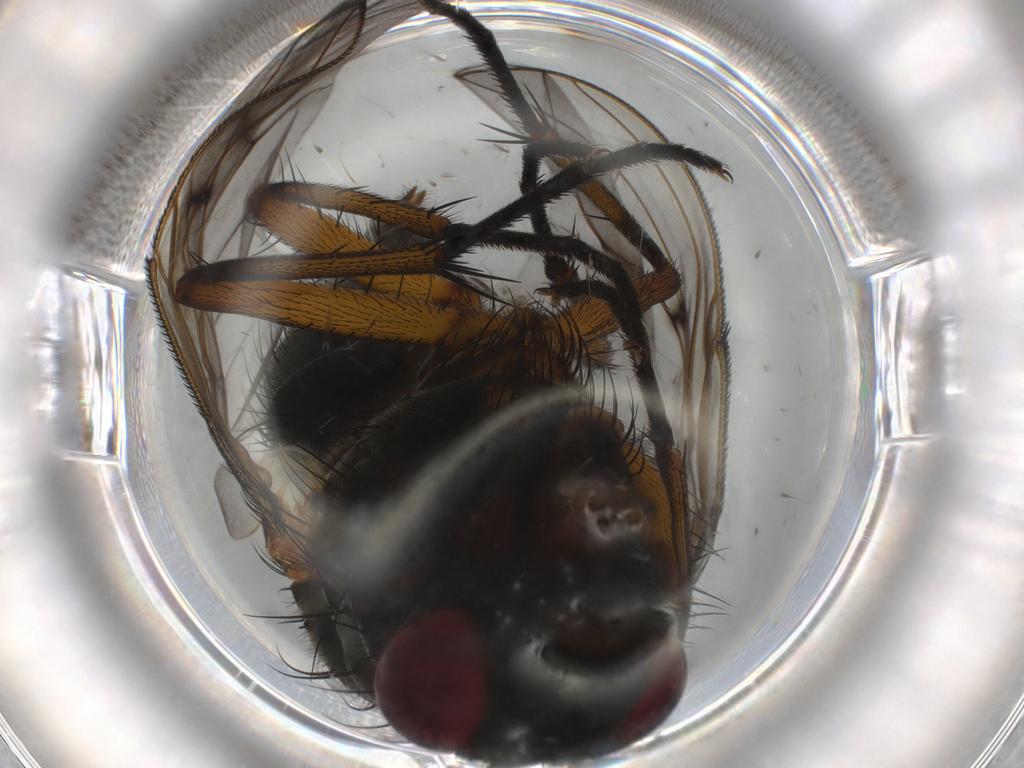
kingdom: Animalia
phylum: Arthropoda
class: Insecta
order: Diptera
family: Muscidae
